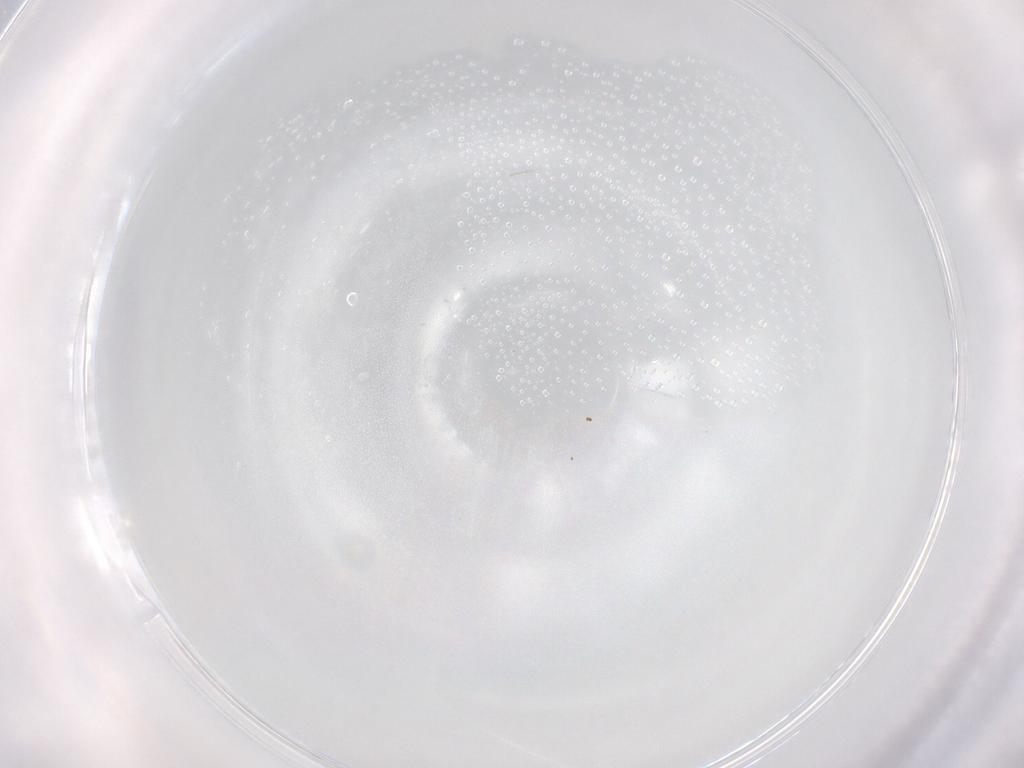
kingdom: Animalia
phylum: Arthropoda
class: Arachnida
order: Trombidiformes
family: Stigmaeidae
